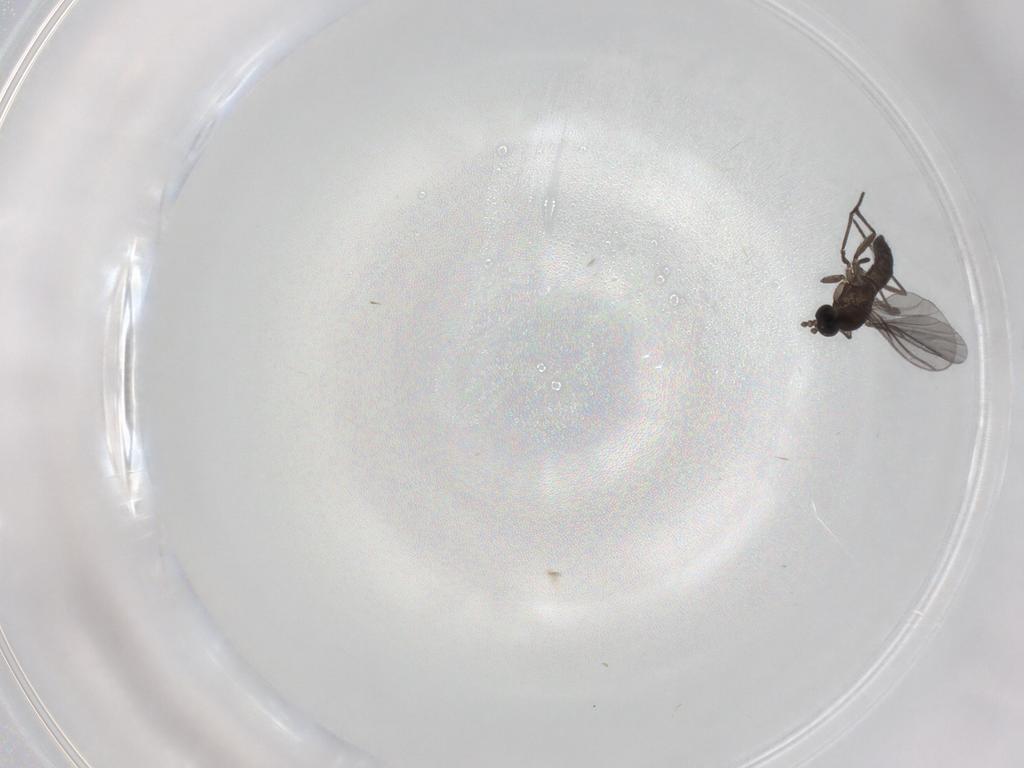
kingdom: Animalia
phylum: Arthropoda
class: Insecta
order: Diptera
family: Dolichopodidae
